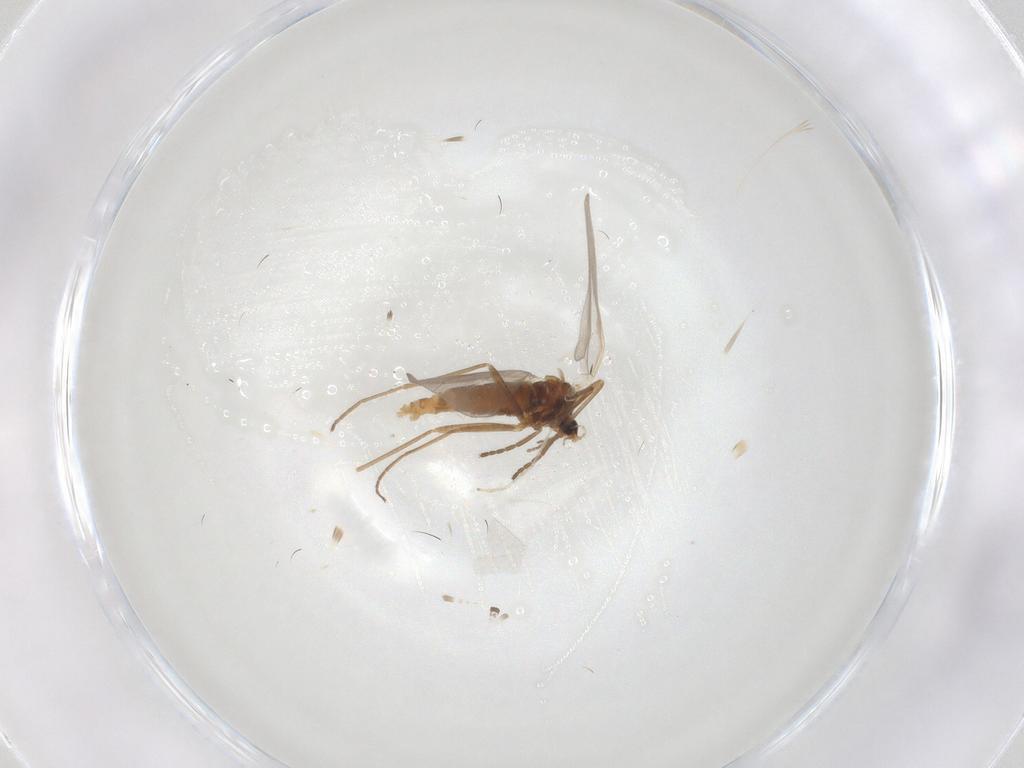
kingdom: Animalia
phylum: Arthropoda
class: Insecta
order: Diptera
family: Cecidomyiidae
